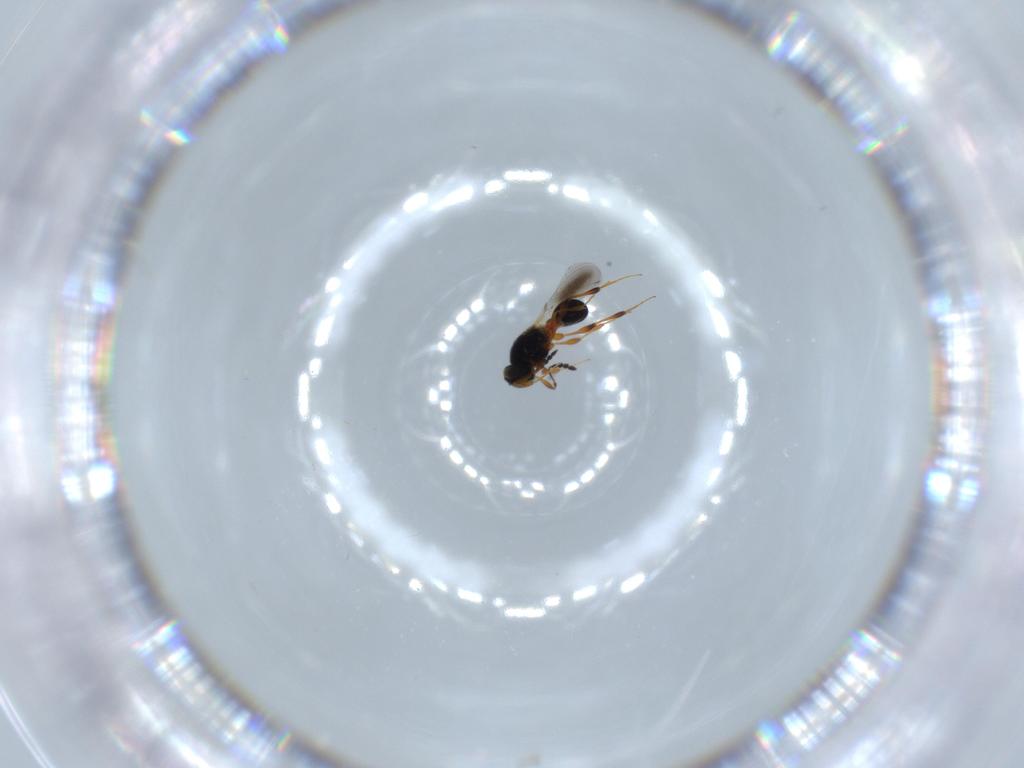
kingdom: Animalia
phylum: Arthropoda
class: Insecta
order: Hymenoptera
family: Platygastridae
